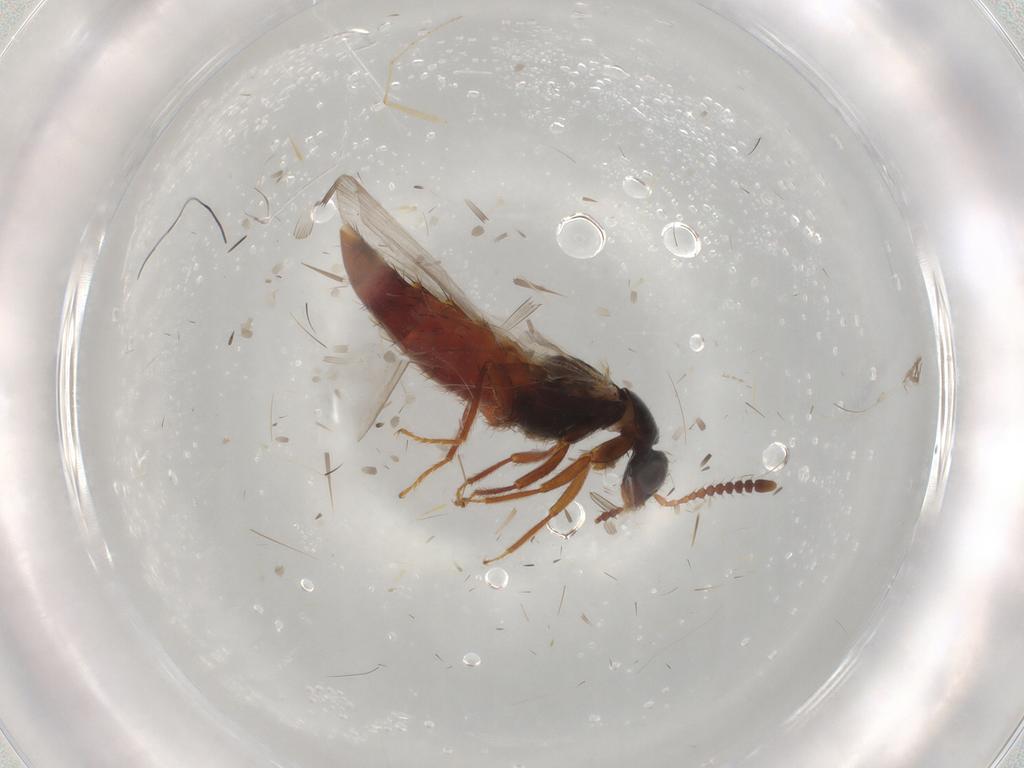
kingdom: Animalia
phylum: Arthropoda
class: Insecta
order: Coleoptera
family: Staphylinidae
